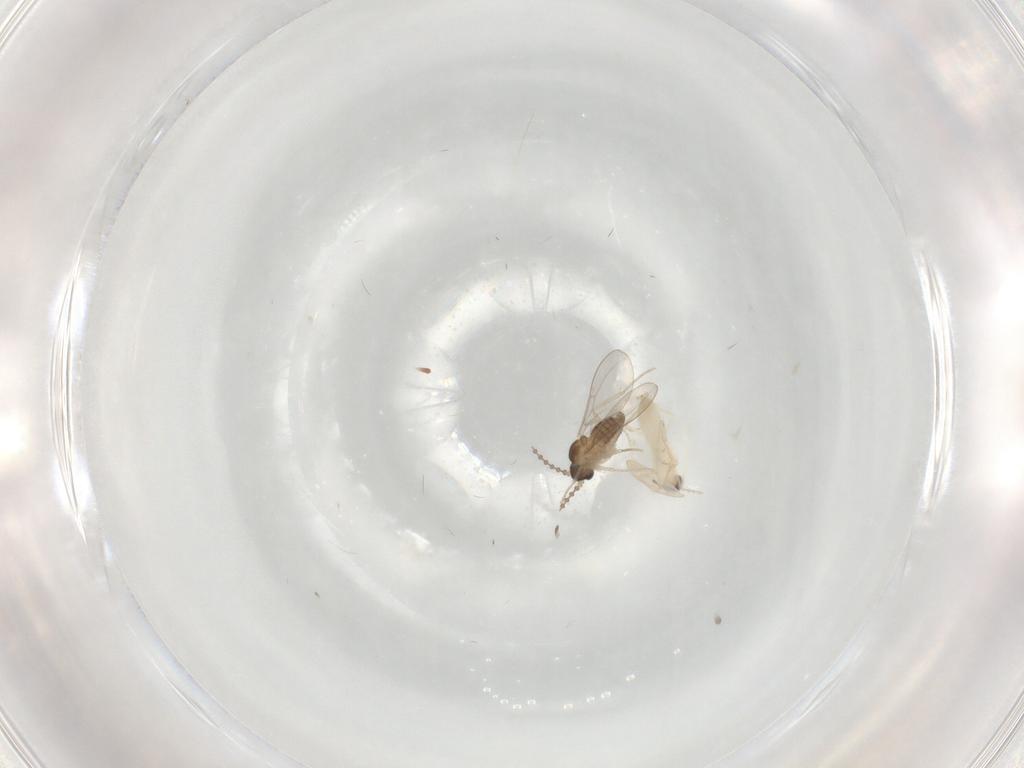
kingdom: Animalia
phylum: Arthropoda
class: Insecta
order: Diptera
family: Cecidomyiidae
